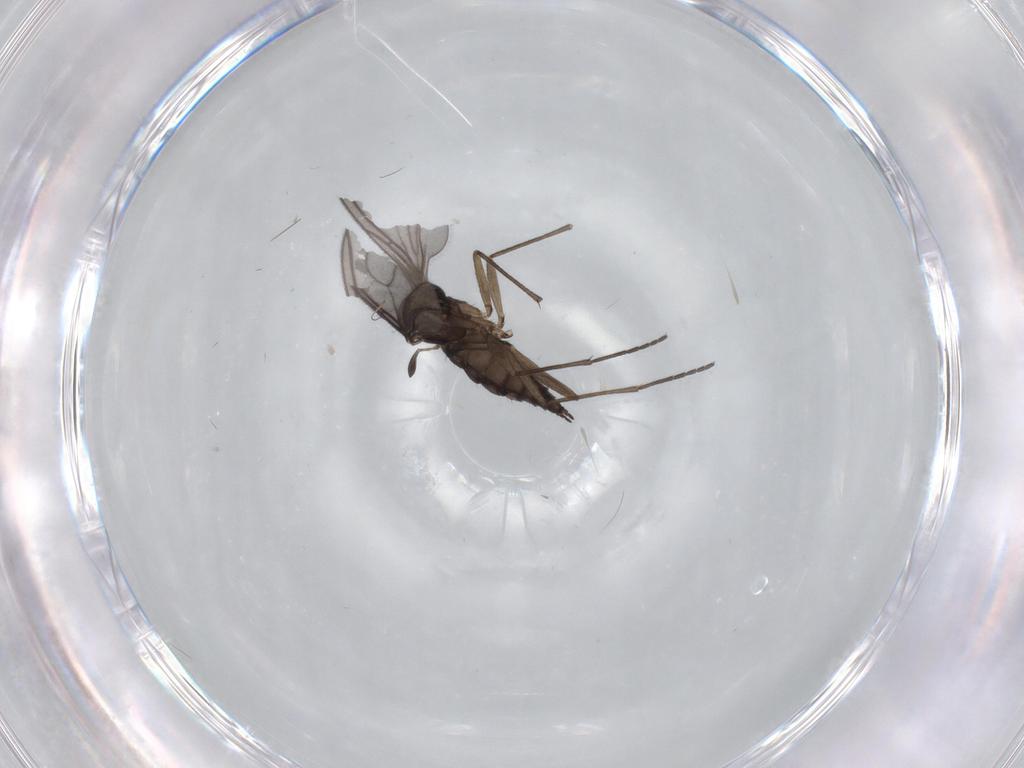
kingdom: Animalia
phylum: Arthropoda
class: Insecta
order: Diptera
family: Sciaridae
